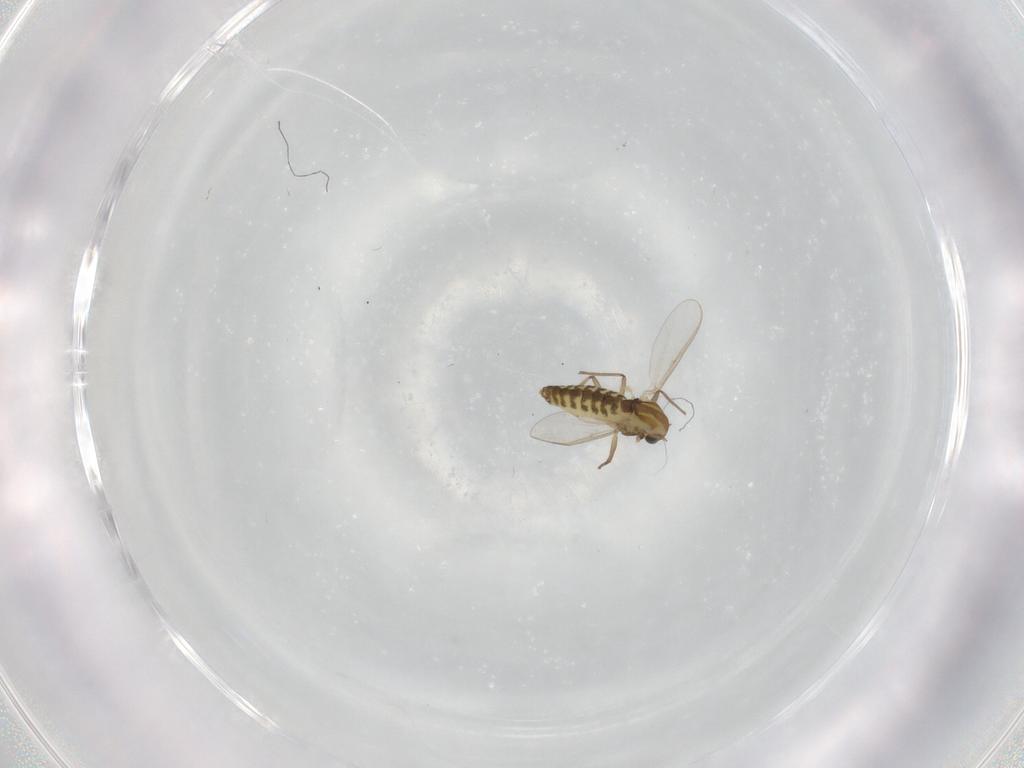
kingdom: Animalia
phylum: Arthropoda
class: Insecta
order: Diptera
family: Chironomidae
